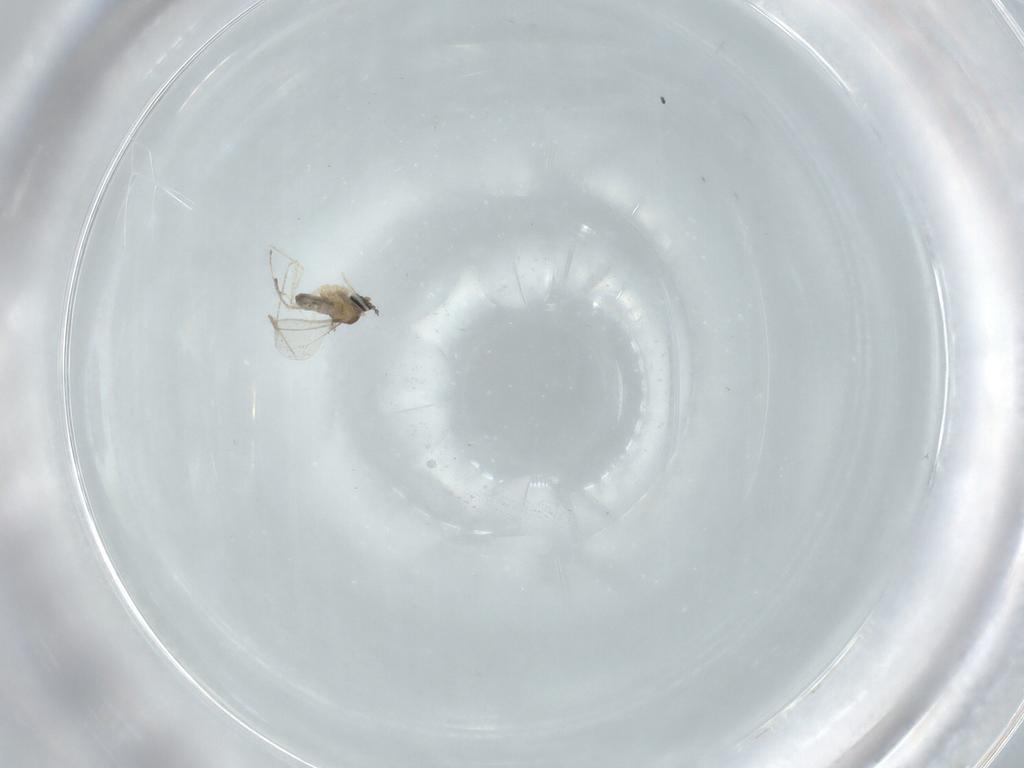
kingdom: Animalia
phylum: Arthropoda
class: Insecta
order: Diptera
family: Cecidomyiidae
